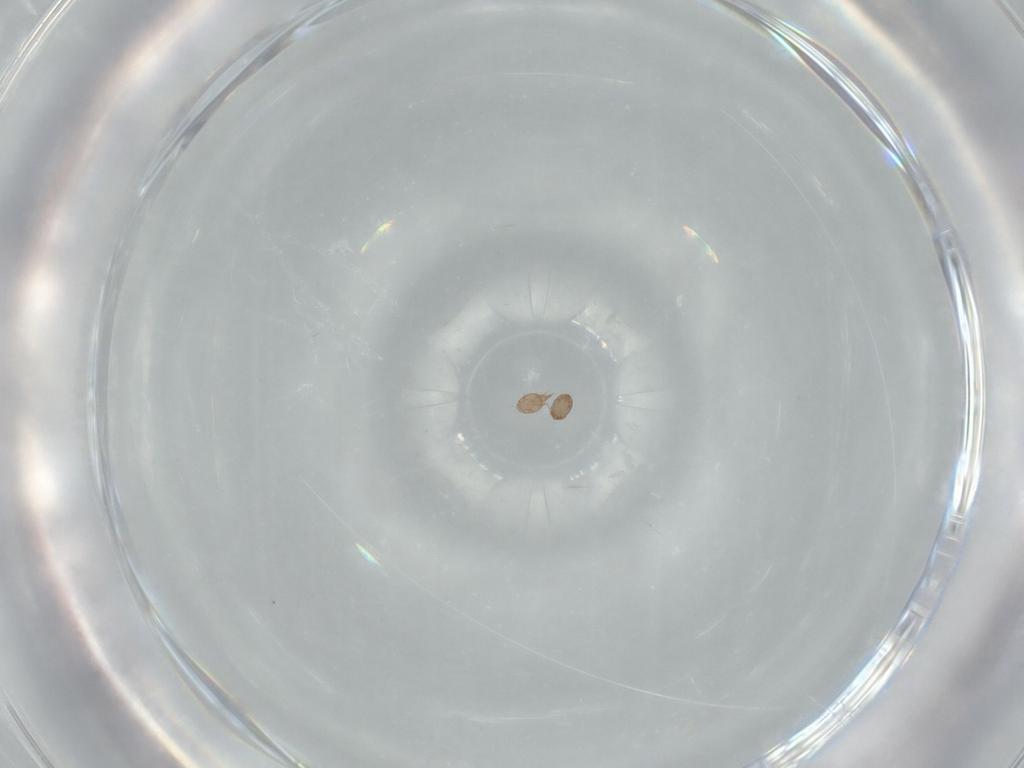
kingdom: Animalia
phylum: Arthropoda
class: Arachnida
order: Sarcoptiformes
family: Acaridae
